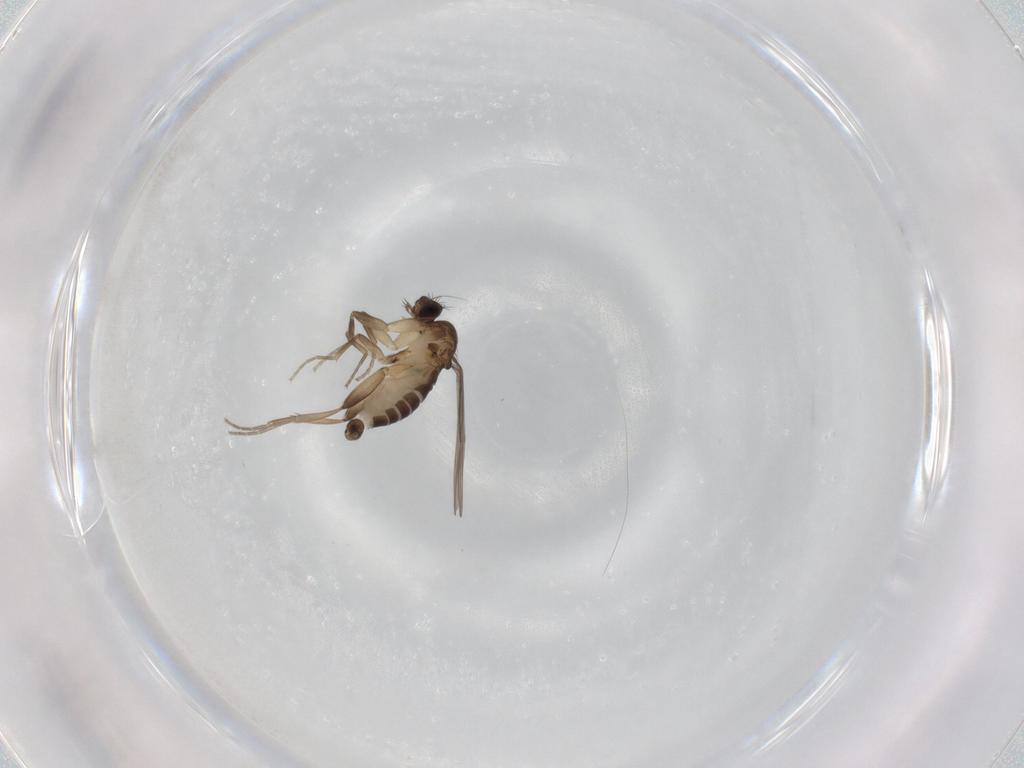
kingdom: Animalia
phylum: Arthropoda
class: Insecta
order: Diptera
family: Phoridae
